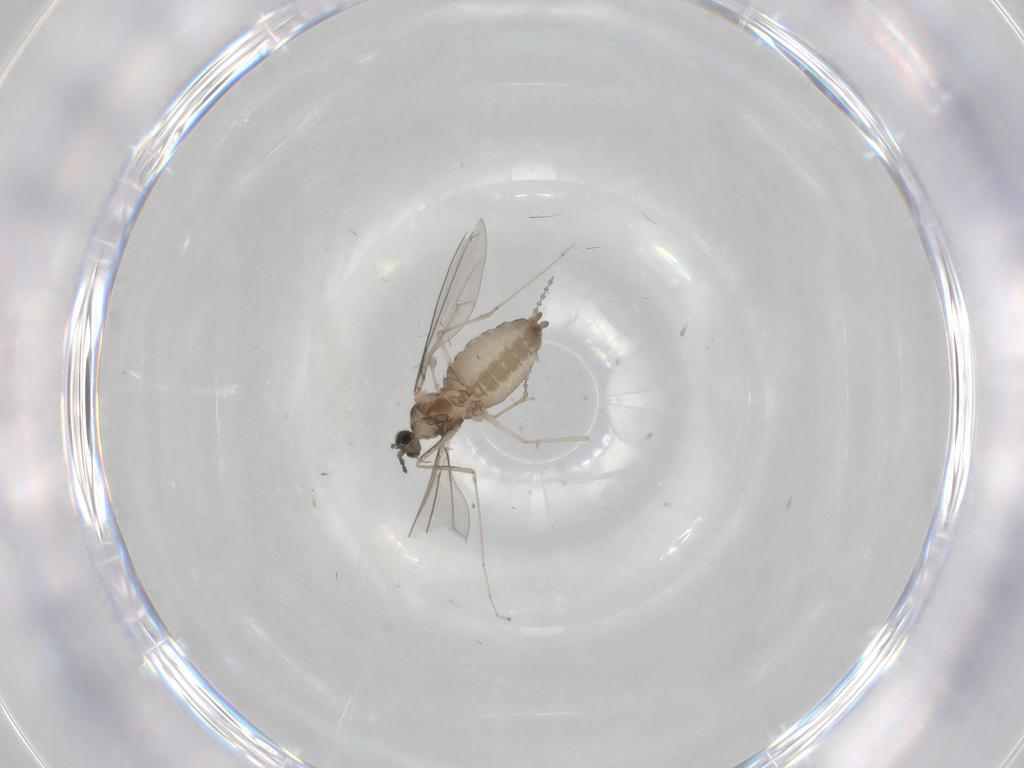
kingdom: Animalia
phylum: Arthropoda
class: Insecta
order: Diptera
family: Cecidomyiidae
